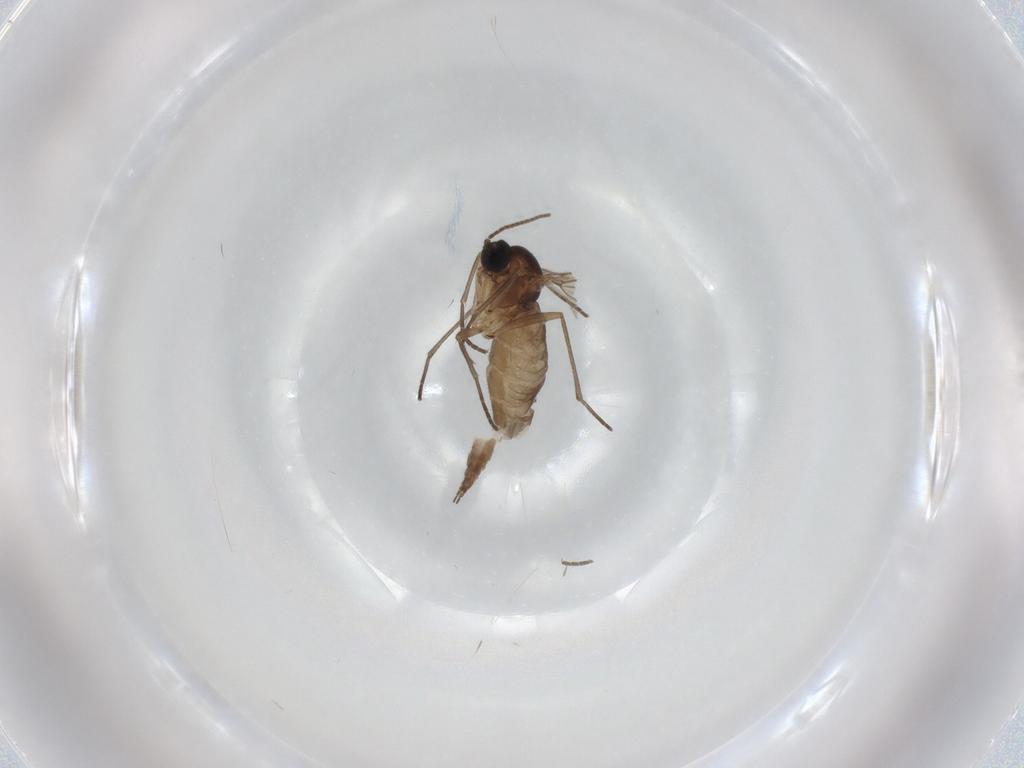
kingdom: Animalia
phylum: Arthropoda
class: Insecta
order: Diptera
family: Sciaridae
